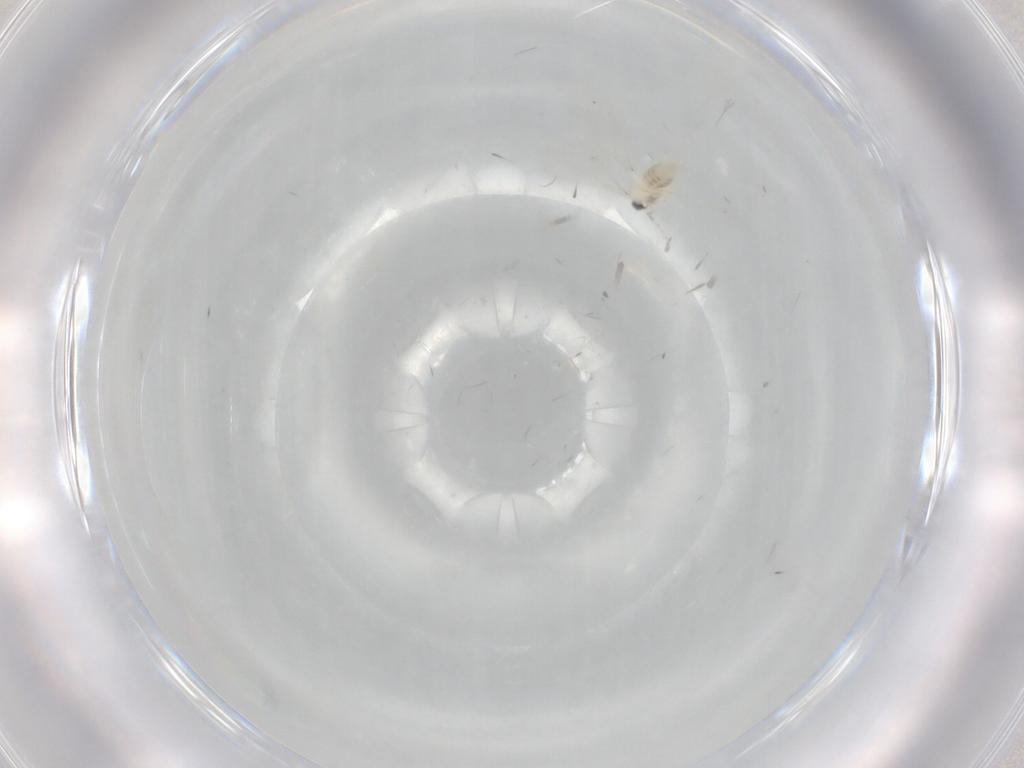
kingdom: Animalia
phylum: Arthropoda
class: Insecta
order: Diptera
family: Cecidomyiidae
